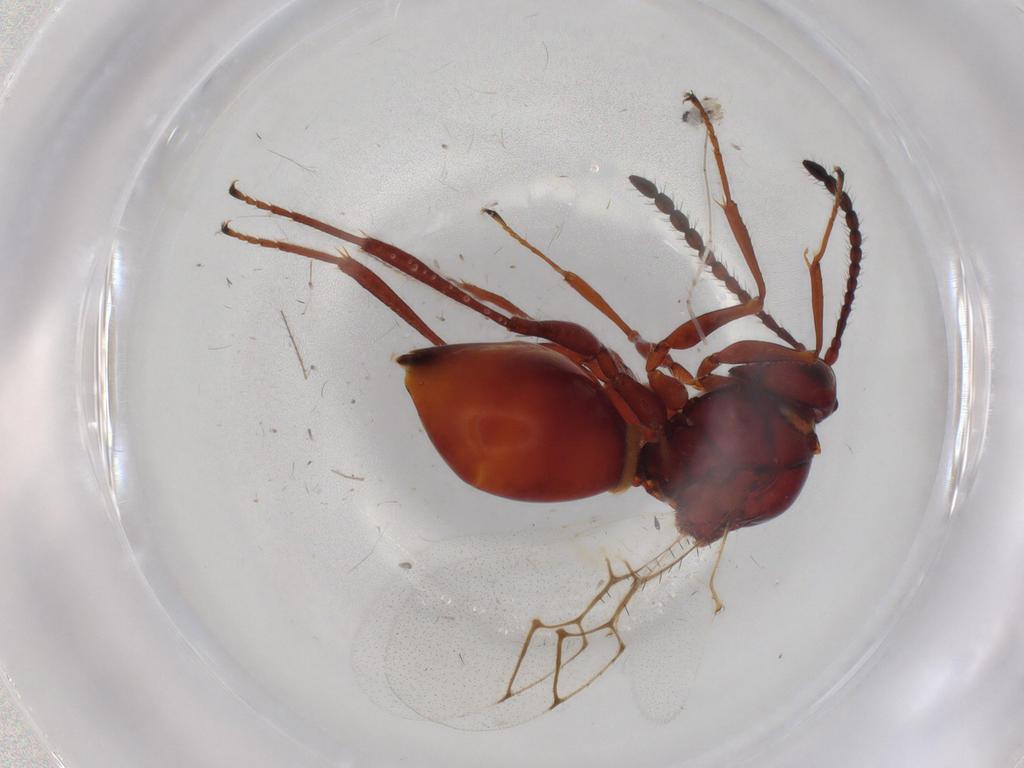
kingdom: Animalia
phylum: Arthropoda
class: Insecta
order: Hymenoptera
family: Figitidae
